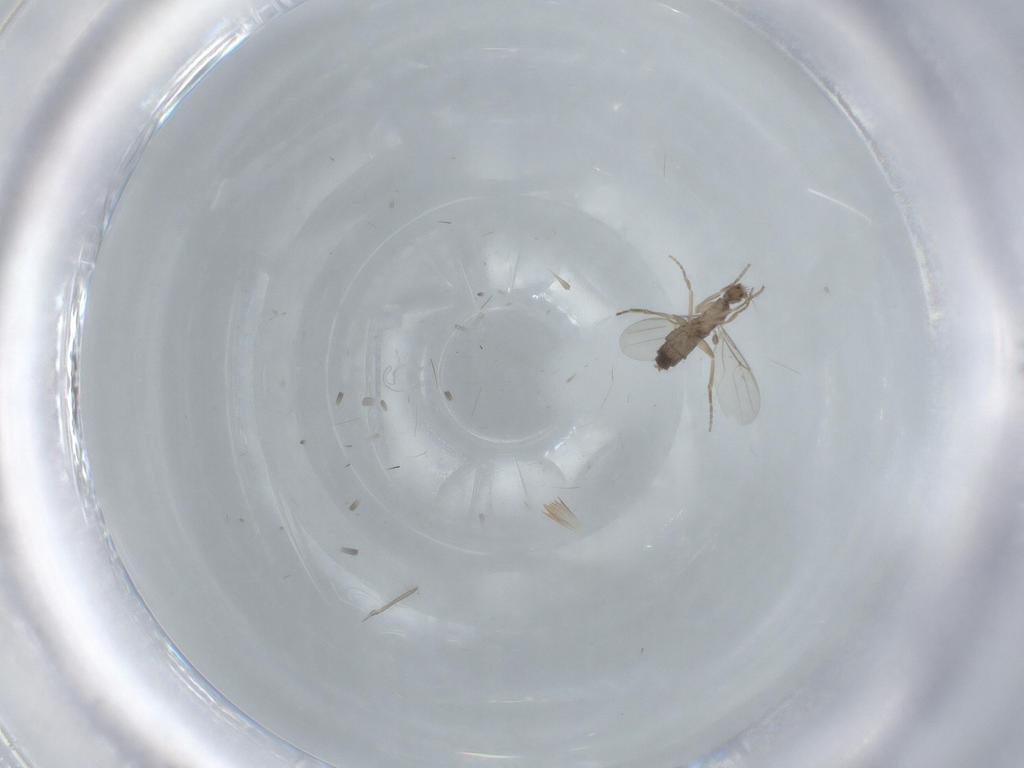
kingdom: Animalia
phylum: Arthropoda
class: Insecta
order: Diptera
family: Phoridae
